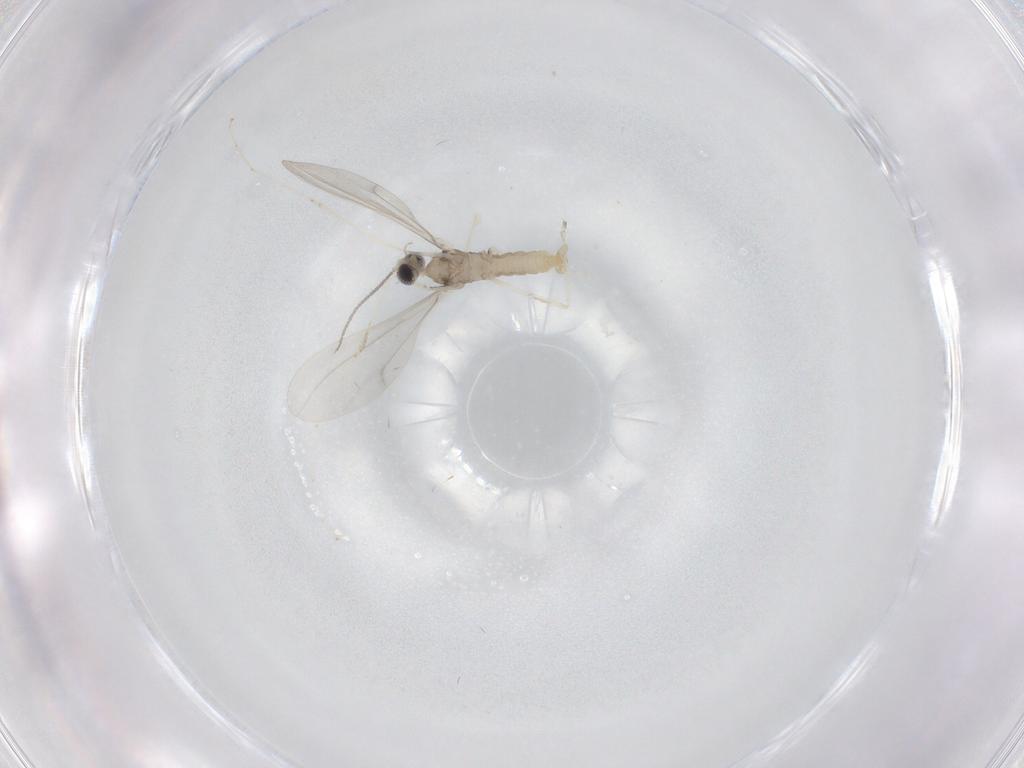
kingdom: Animalia
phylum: Arthropoda
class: Insecta
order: Diptera
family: Cecidomyiidae
